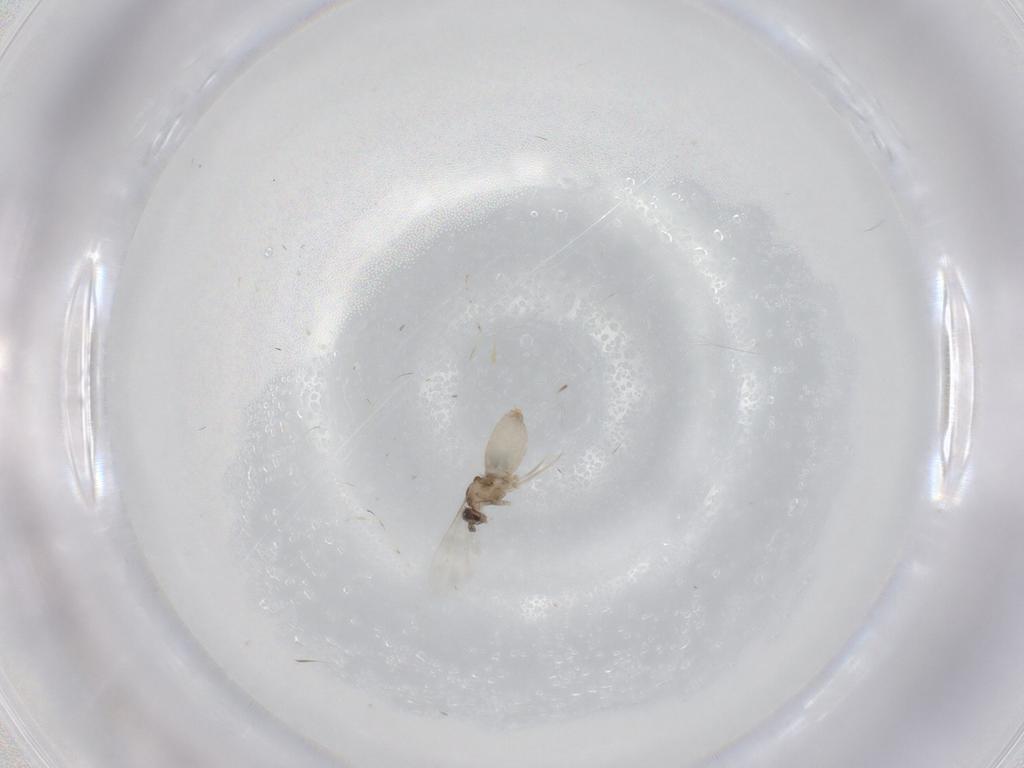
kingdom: Animalia
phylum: Arthropoda
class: Insecta
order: Diptera
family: Cecidomyiidae
